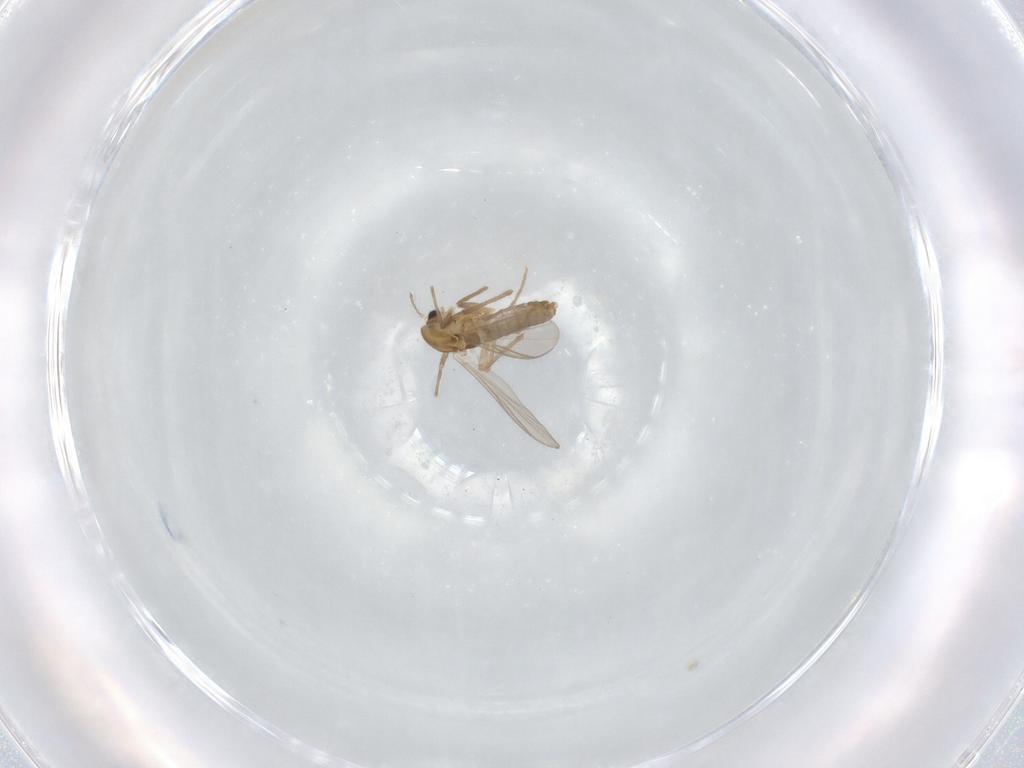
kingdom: Animalia
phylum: Arthropoda
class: Insecta
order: Diptera
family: Chironomidae
